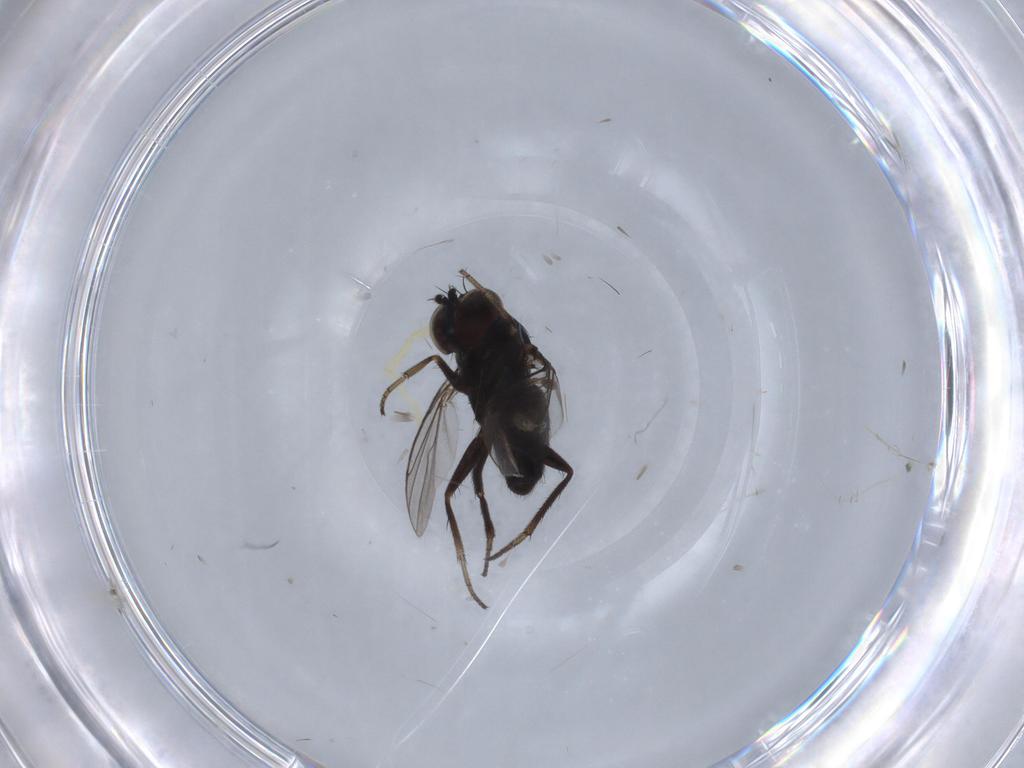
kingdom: Animalia
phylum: Arthropoda
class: Insecta
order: Diptera
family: Dolichopodidae
